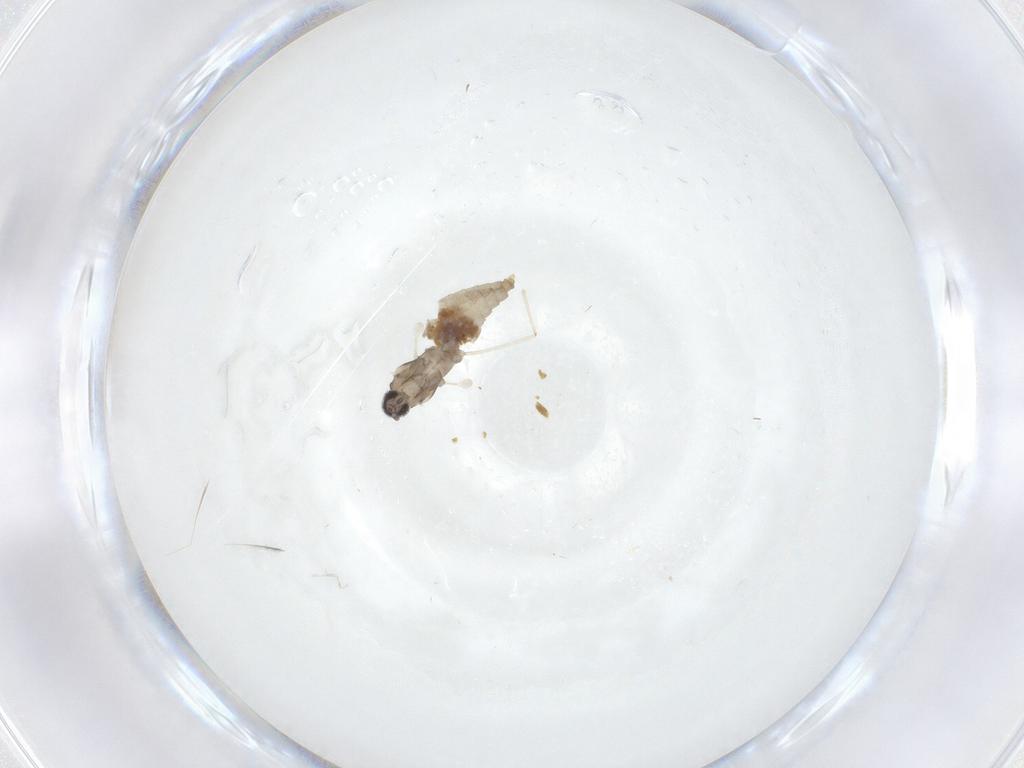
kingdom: Animalia
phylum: Arthropoda
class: Insecta
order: Diptera
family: Cecidomyiidae
